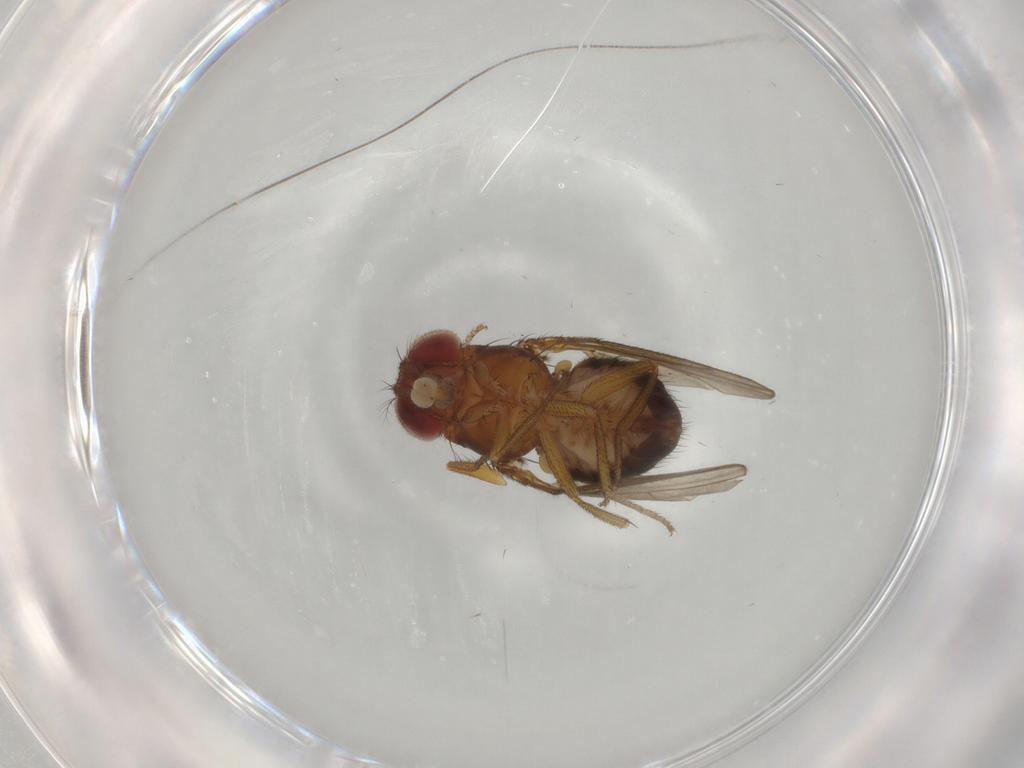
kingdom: Animalia
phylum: Arthropoda
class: Insecta
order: Diptera
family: Drosophilidae
